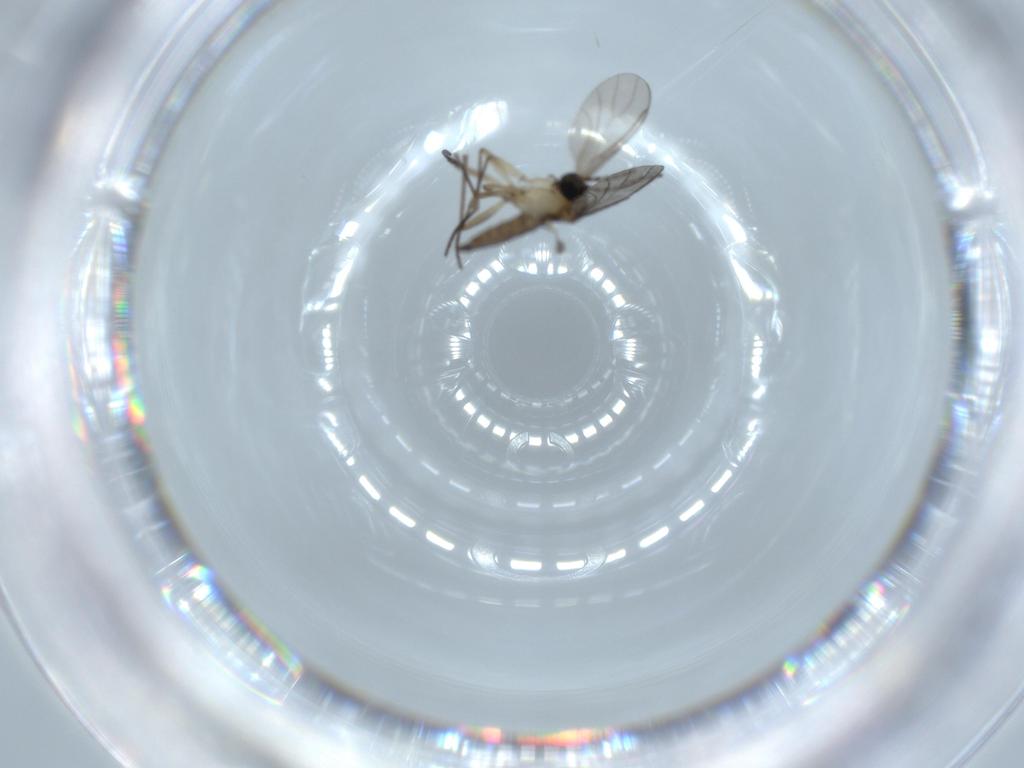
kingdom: Animalia
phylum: Arthropoda
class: Insecta
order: Diptera
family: Sciaridae
